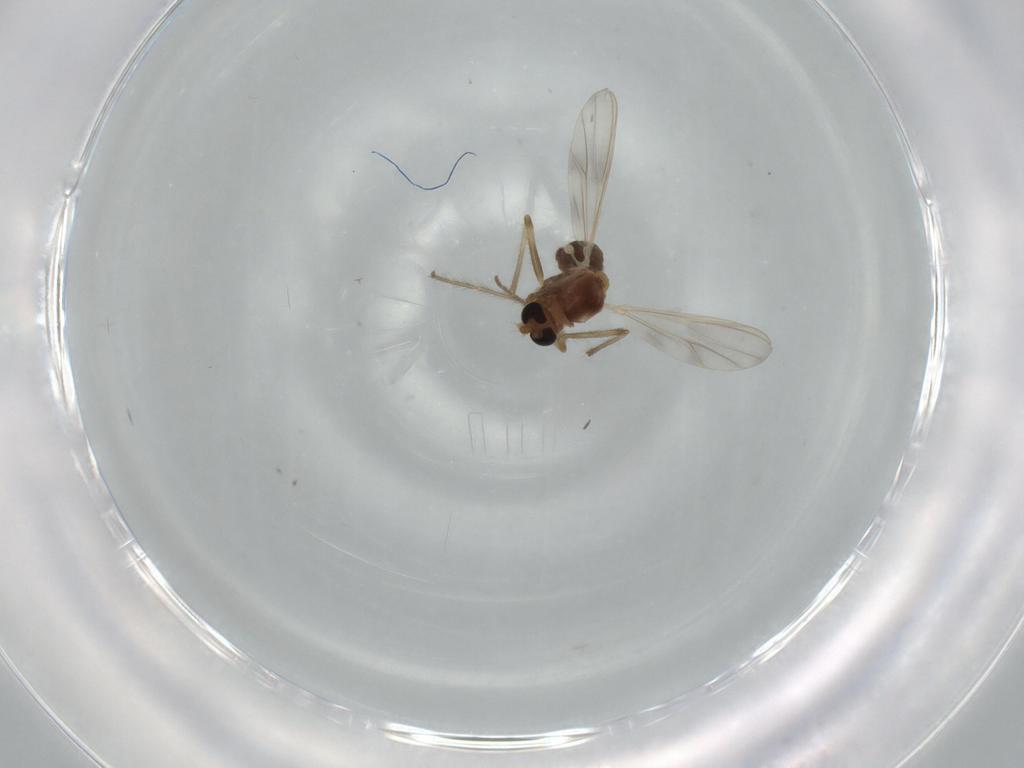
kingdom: Animalia
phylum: Arthropoda
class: Insecta
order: Diptera
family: Chironomidae
